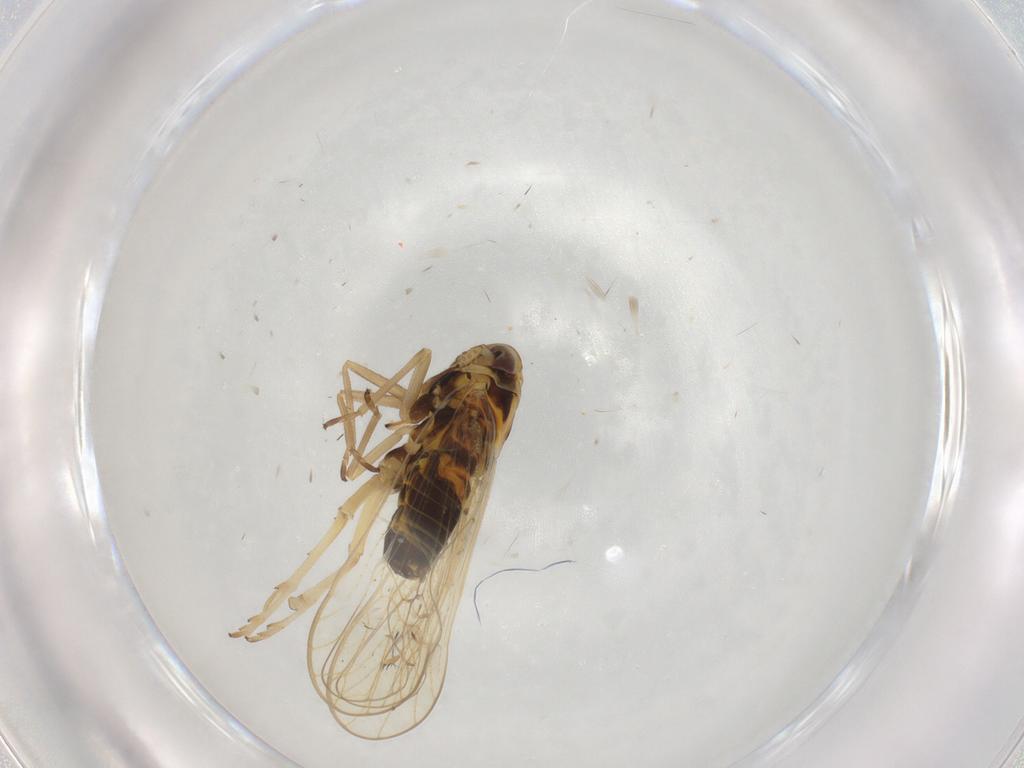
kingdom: Animalia
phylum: Arthropoda
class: Insecta
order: Hemiptera
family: Delphacidae
